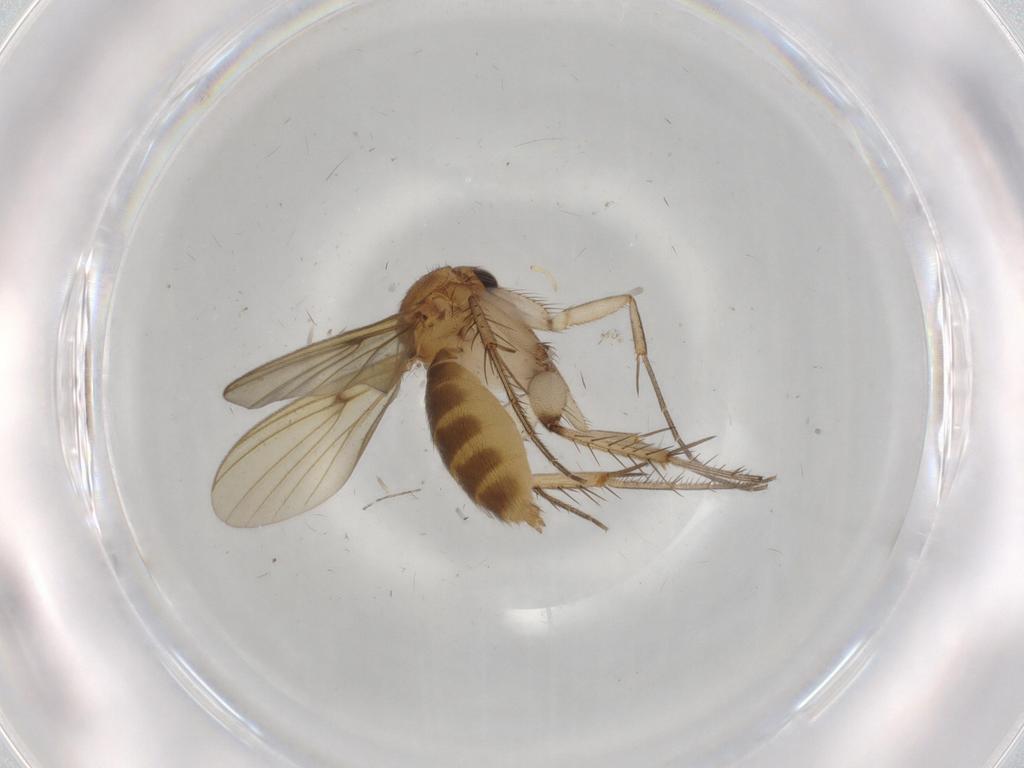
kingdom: Animalia
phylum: Arthropoda
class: Insecta
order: Diptera
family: Mycetophilidae
